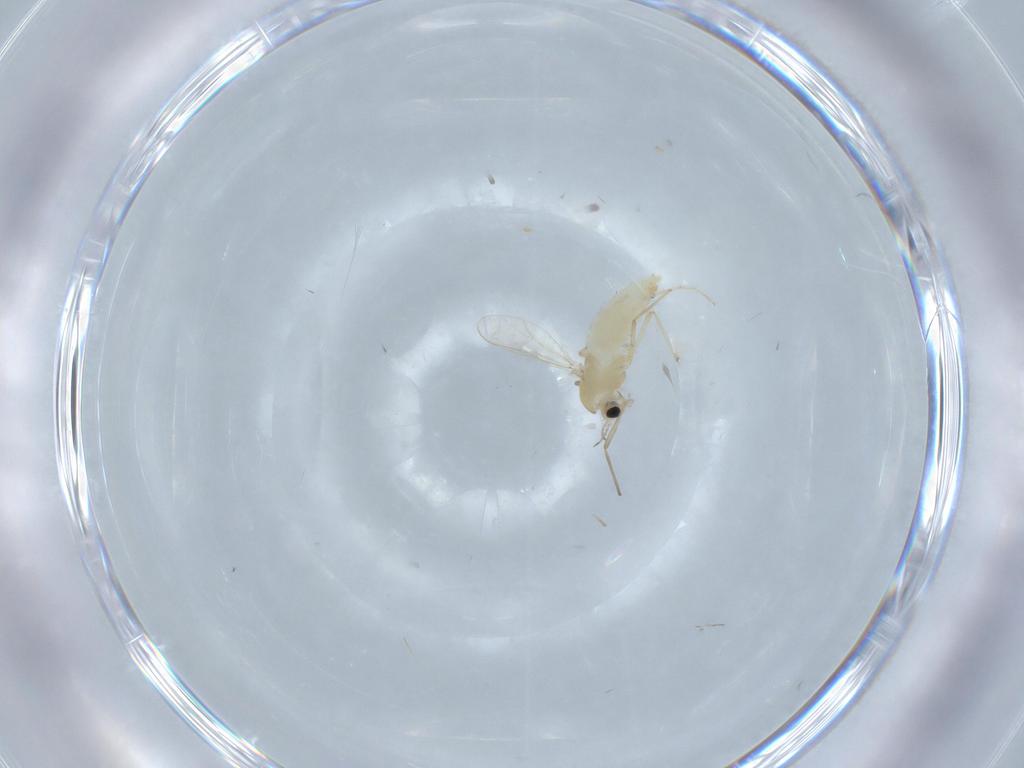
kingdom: Animalia
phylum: Arthropoda
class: Insecta
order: Diptera
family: Chironomidae
